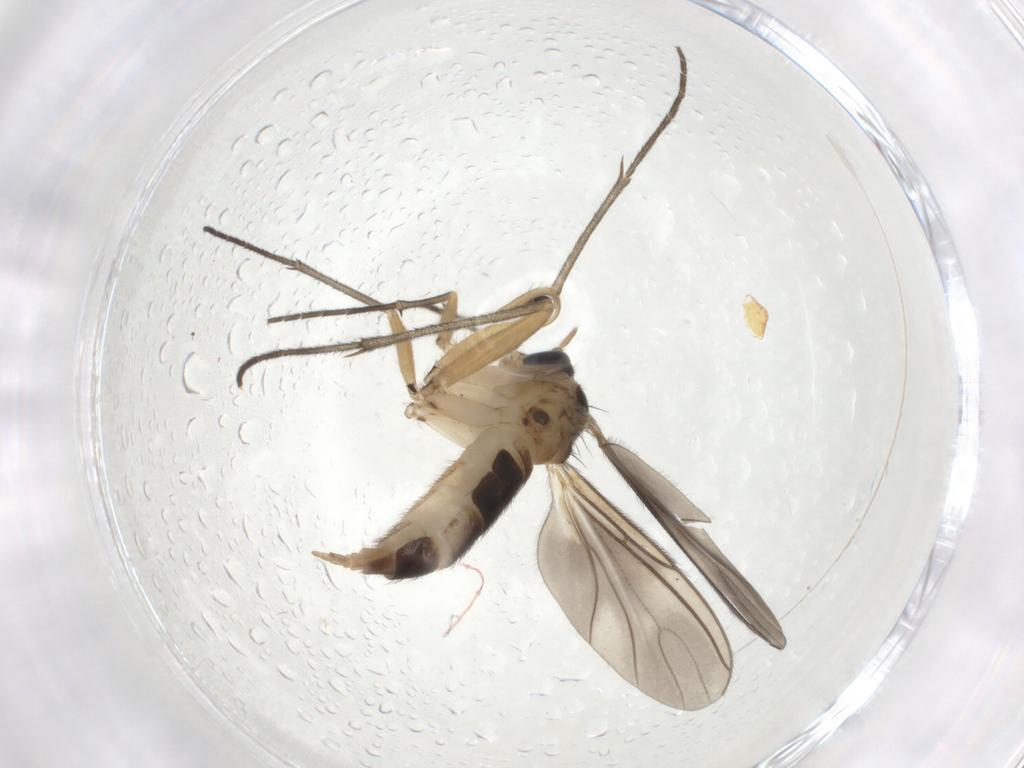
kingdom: Animalia
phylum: Arthropoda
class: Insecta
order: Diptera
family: Sciaridae
